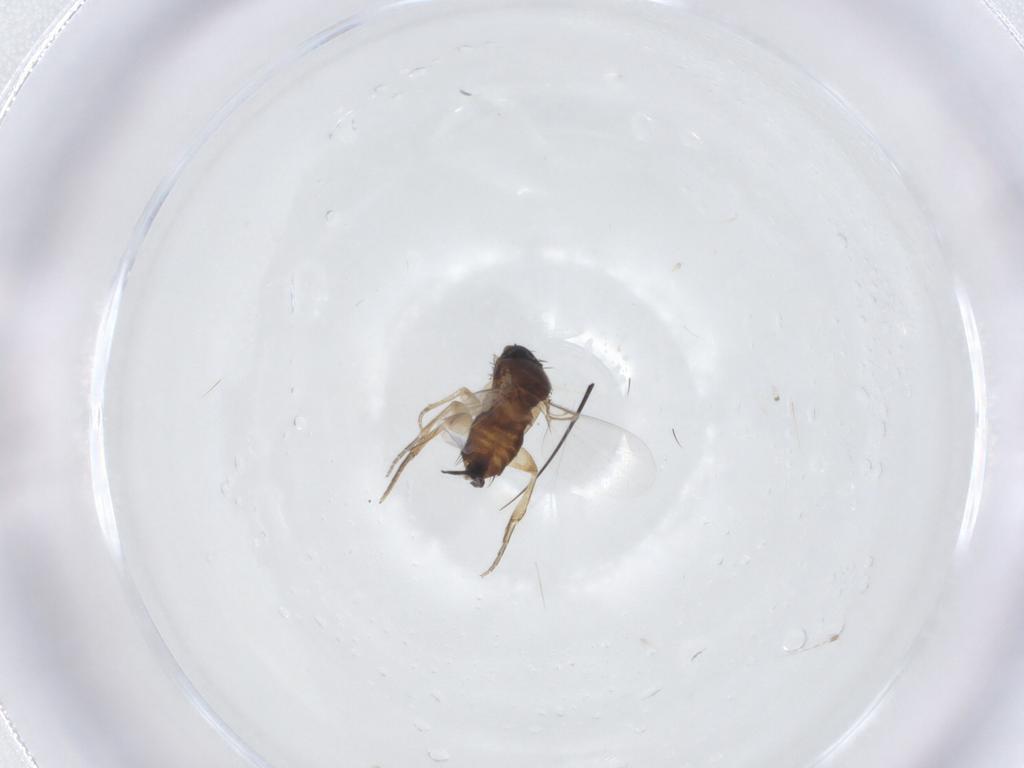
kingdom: Animalia
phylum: Arthropoda
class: Insecta
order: Diptera
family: Phoridae
